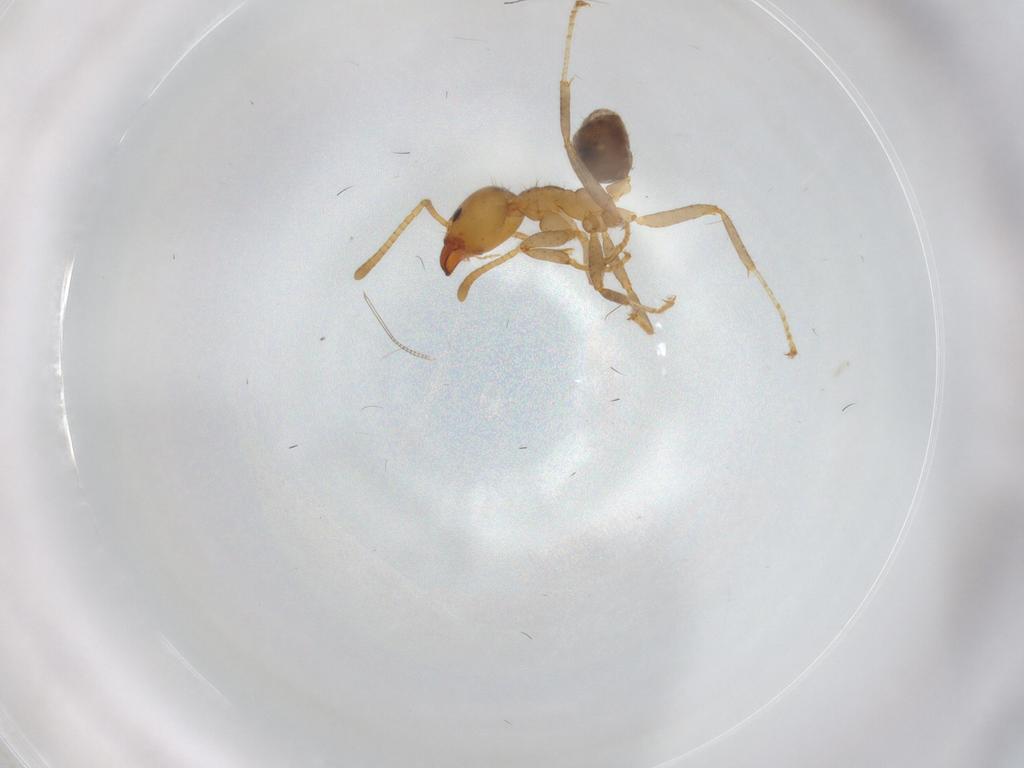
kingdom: Animalia
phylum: Arthropoda
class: Insecta
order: Hymenoptera
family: Formicidae
